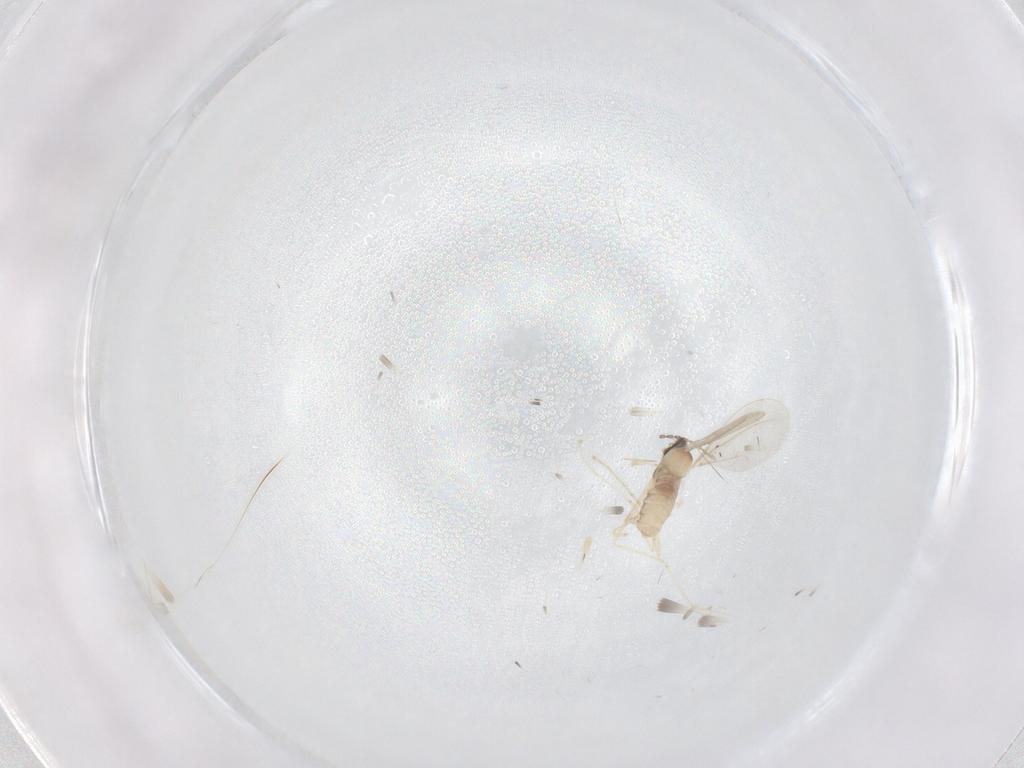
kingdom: Animalia
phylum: Arthropoda
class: Insecta
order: Diptera
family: Cecidomyiidae
